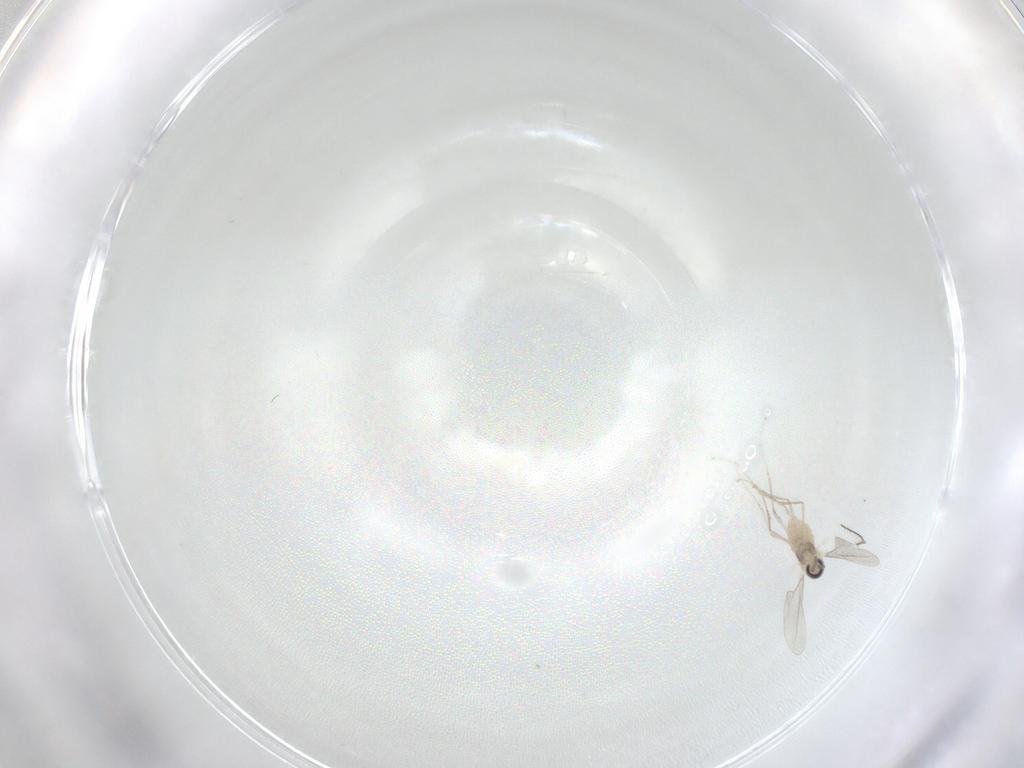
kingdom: Animalia
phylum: Arthropoda
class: Insecta
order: Diptera
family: Cecidomyiidae
